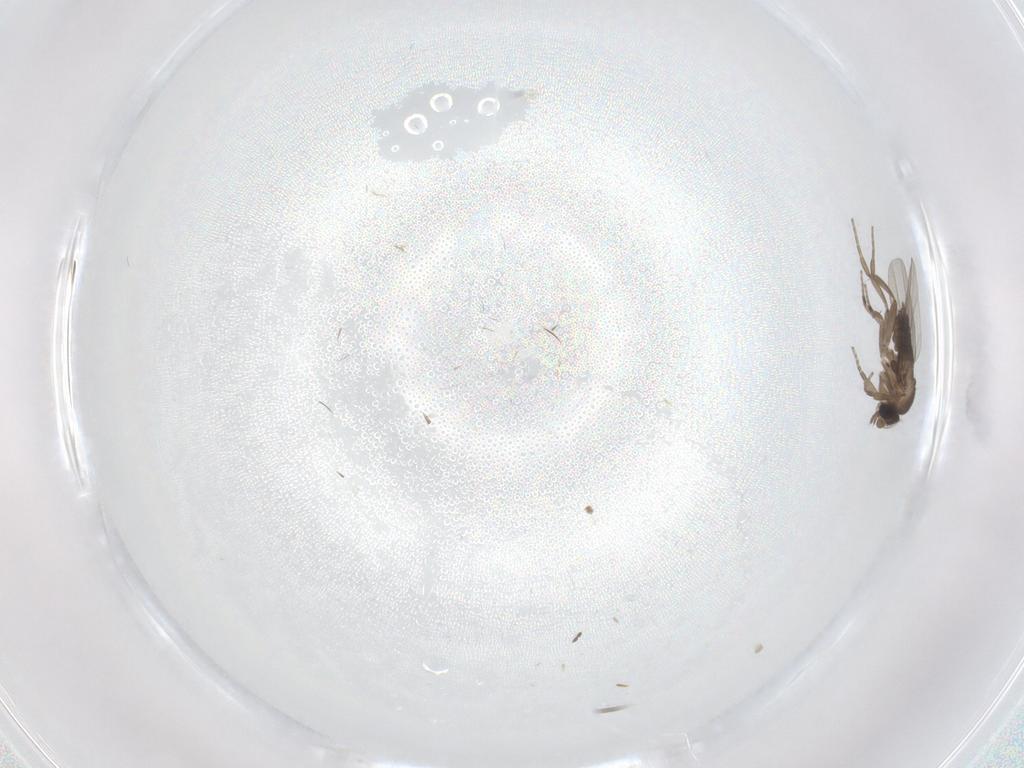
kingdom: Animalia
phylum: Arthropoda
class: Insecta
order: Diptera
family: Phoridae
